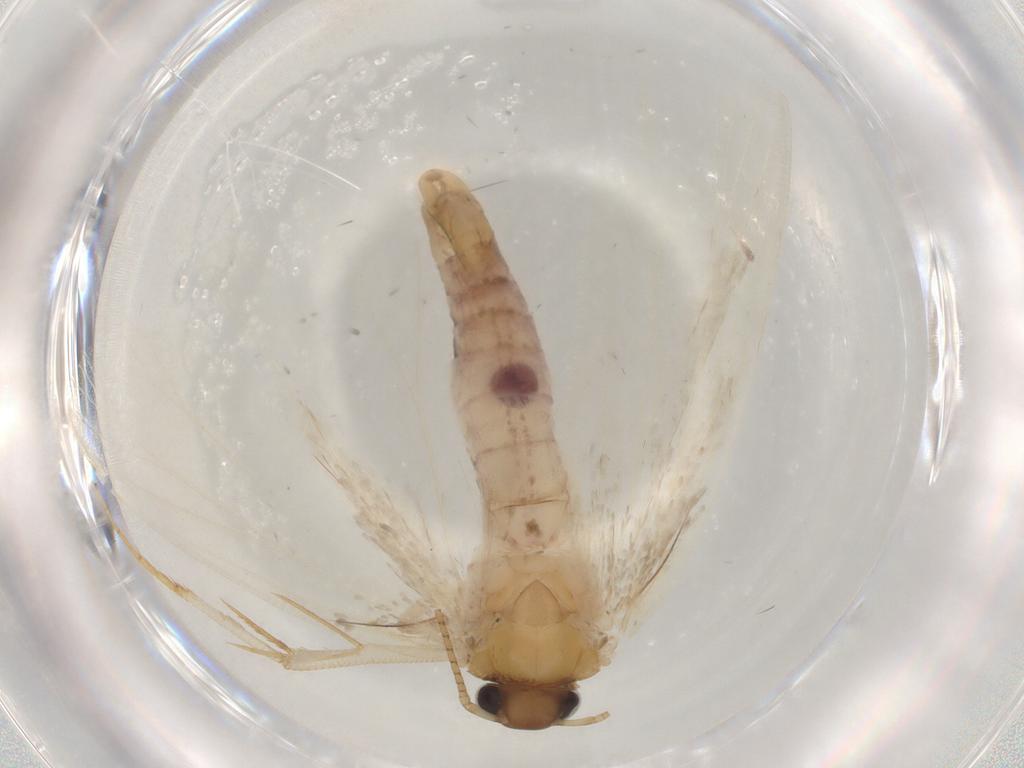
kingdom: Animalia
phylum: Arthropoda
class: Insecta
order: Lepidoptera
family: Gelechiidae
